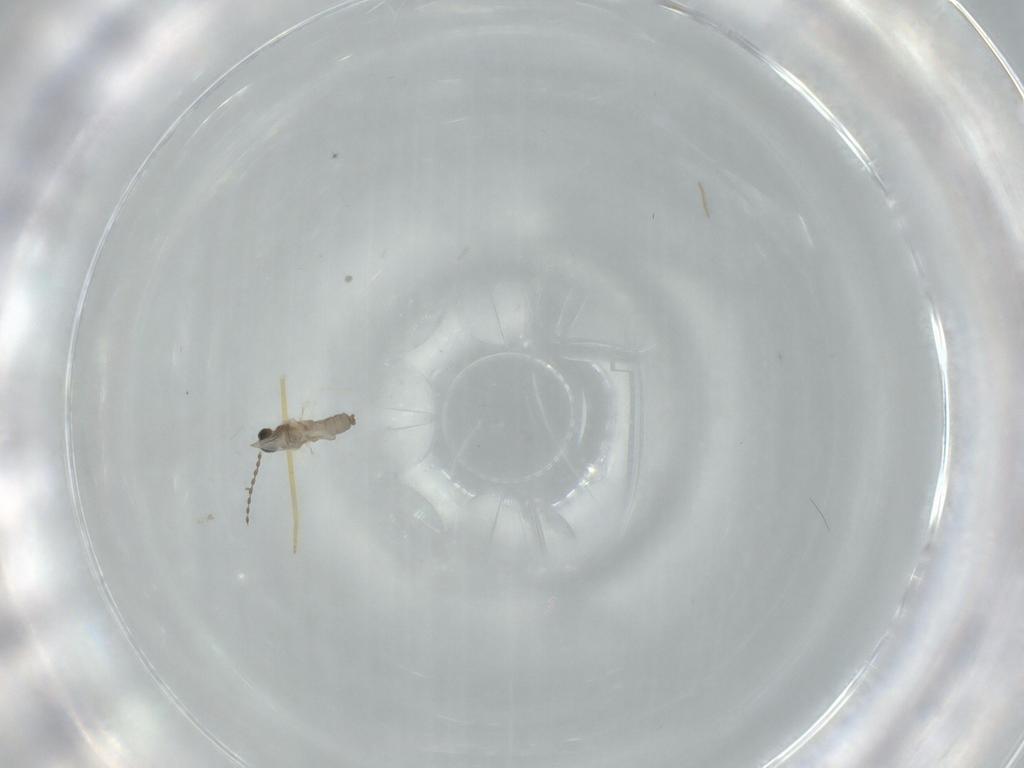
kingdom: Animalia
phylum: Arthropoda
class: Insecta
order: Diptera
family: Cecidomyiidae
